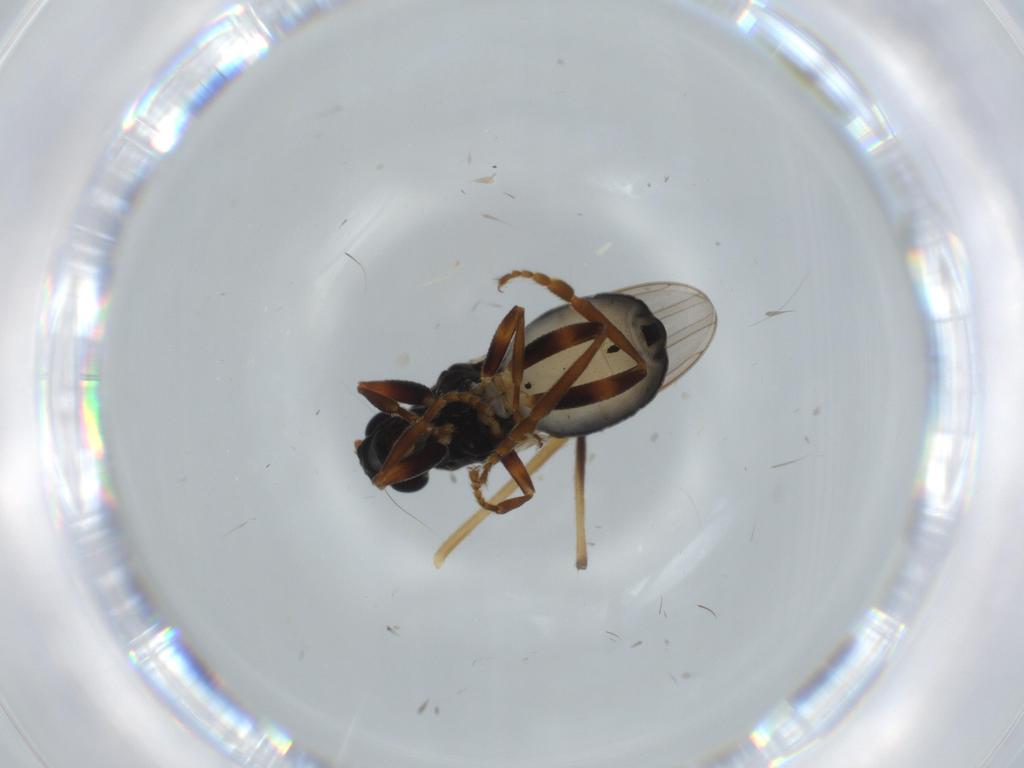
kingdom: Animalia
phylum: Arthropoda
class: Insecta
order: Diptera
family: Sphaeroceridae
